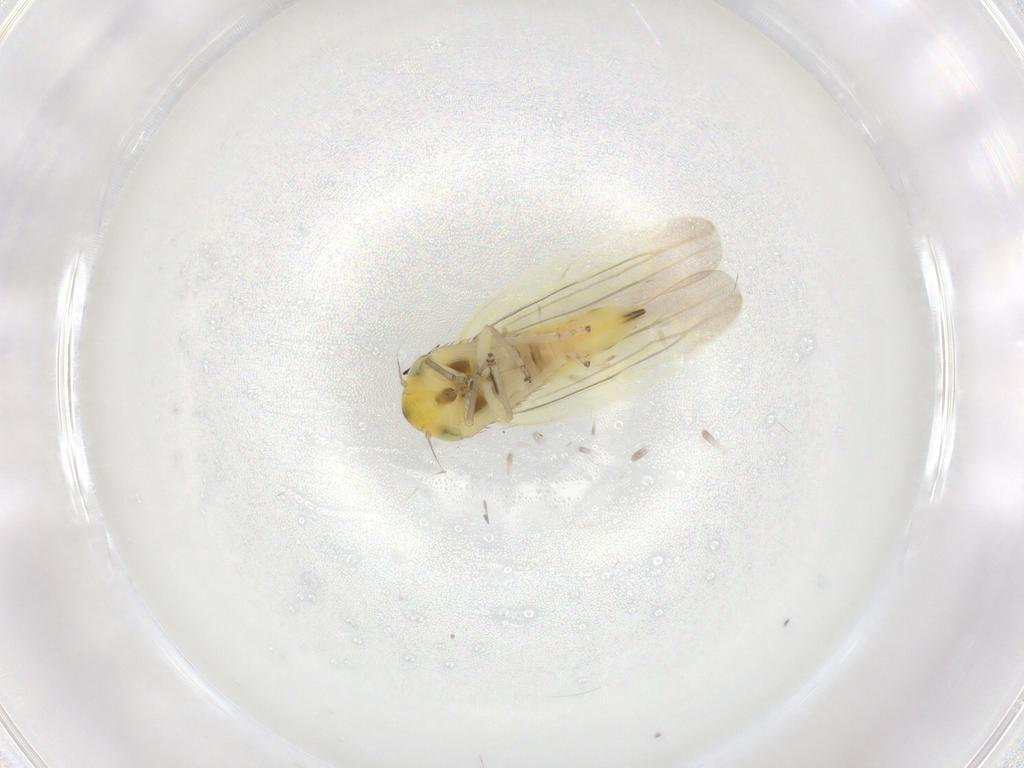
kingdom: Animalia
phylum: Arthropoda
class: Insecta
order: Hemiptera
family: Cicadellidae
